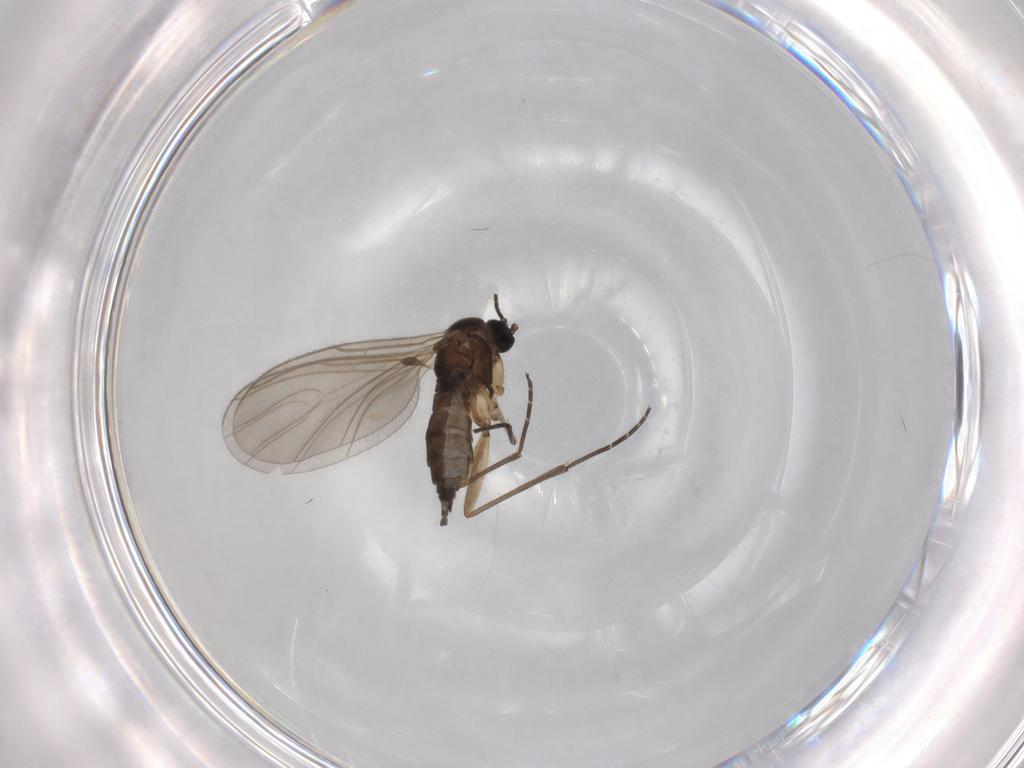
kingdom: Animalia
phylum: Arthropoda
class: Insecta
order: Diptera
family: Sciaridae
